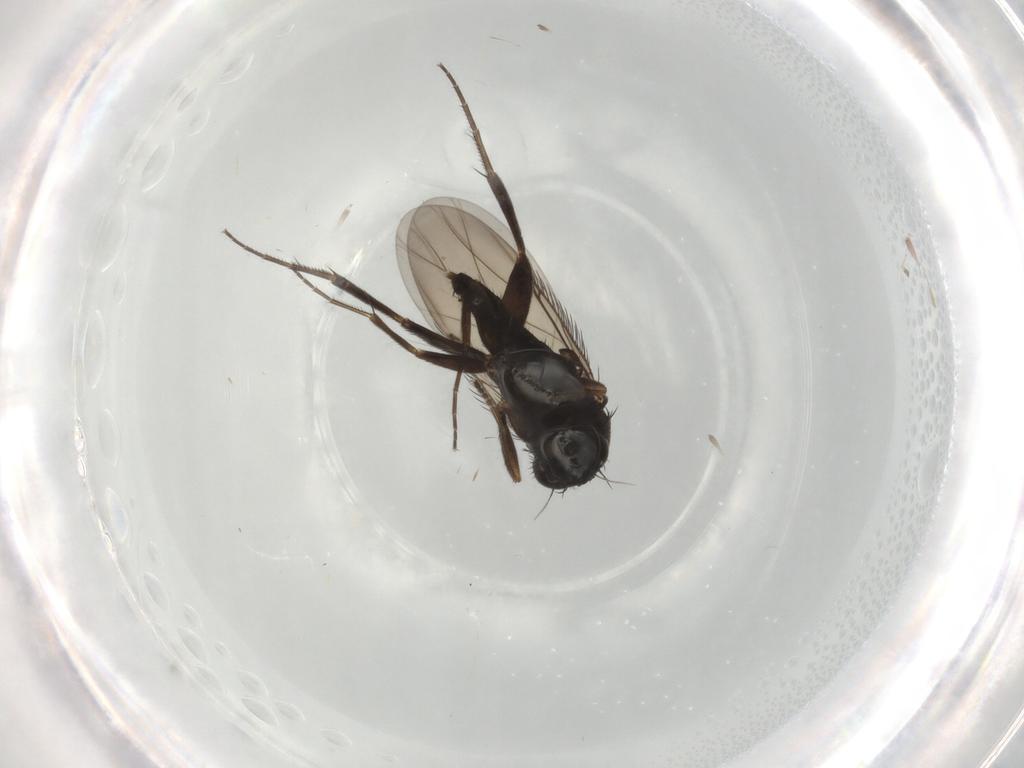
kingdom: Animalia
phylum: Arthropoda
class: Insecta
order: Diptera
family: Phoridae
